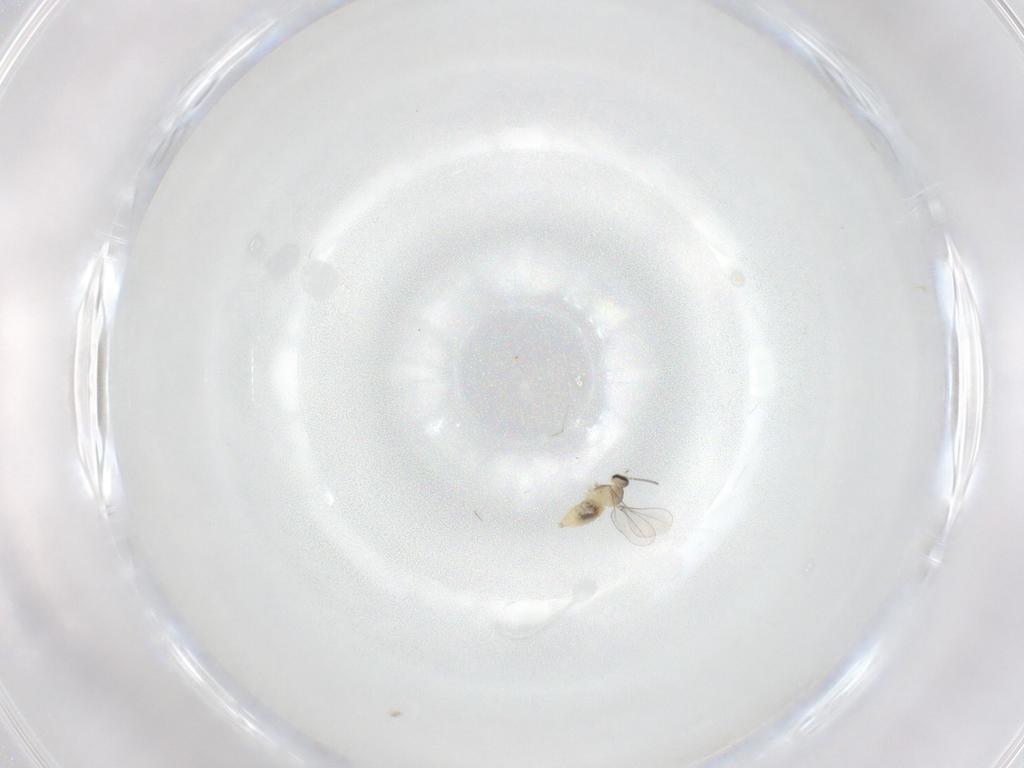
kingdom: Animalia
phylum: Arthropoda
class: Insecta
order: Diptera
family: Cecidomyiidae
